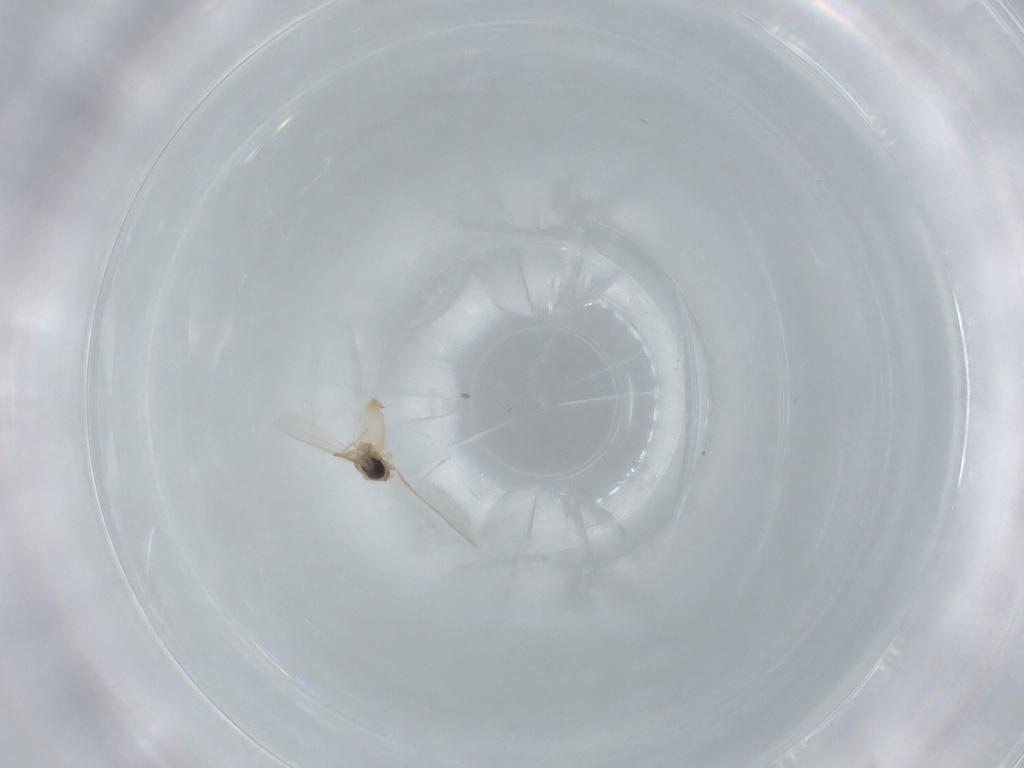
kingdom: Animalia
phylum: Arthropoda
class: Insecta
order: Diptera
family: Cecidomyiidae
